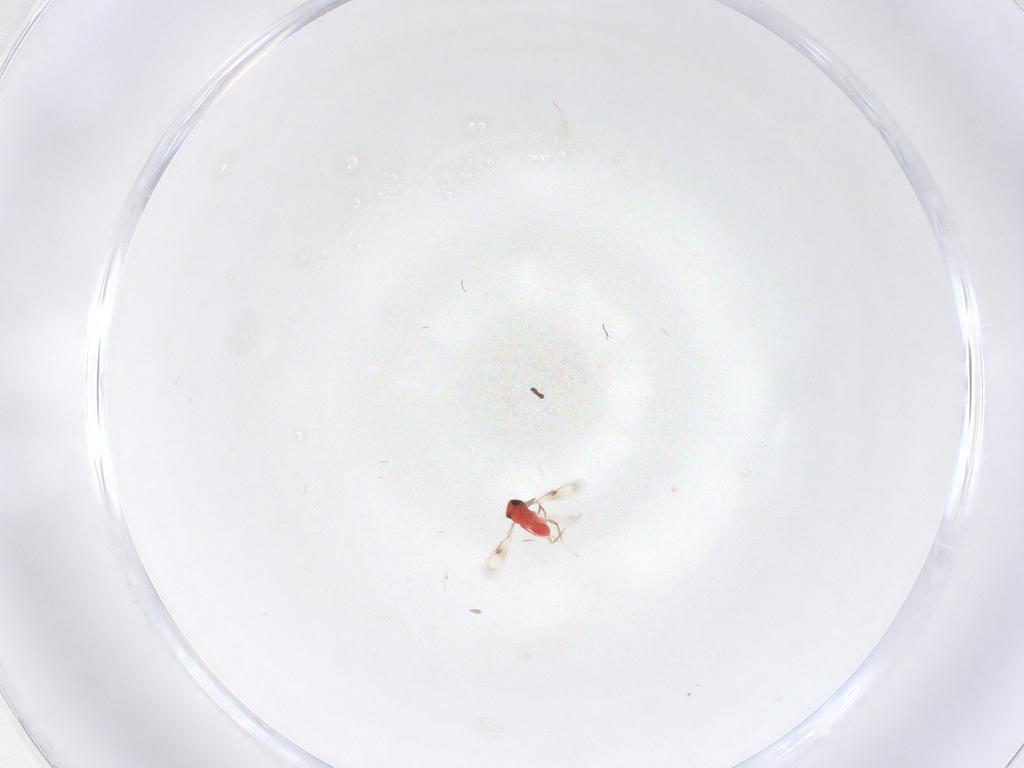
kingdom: Animalia
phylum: Arthropoda
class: Insecta
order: Hymenoptera
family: Trichogrammatidae
